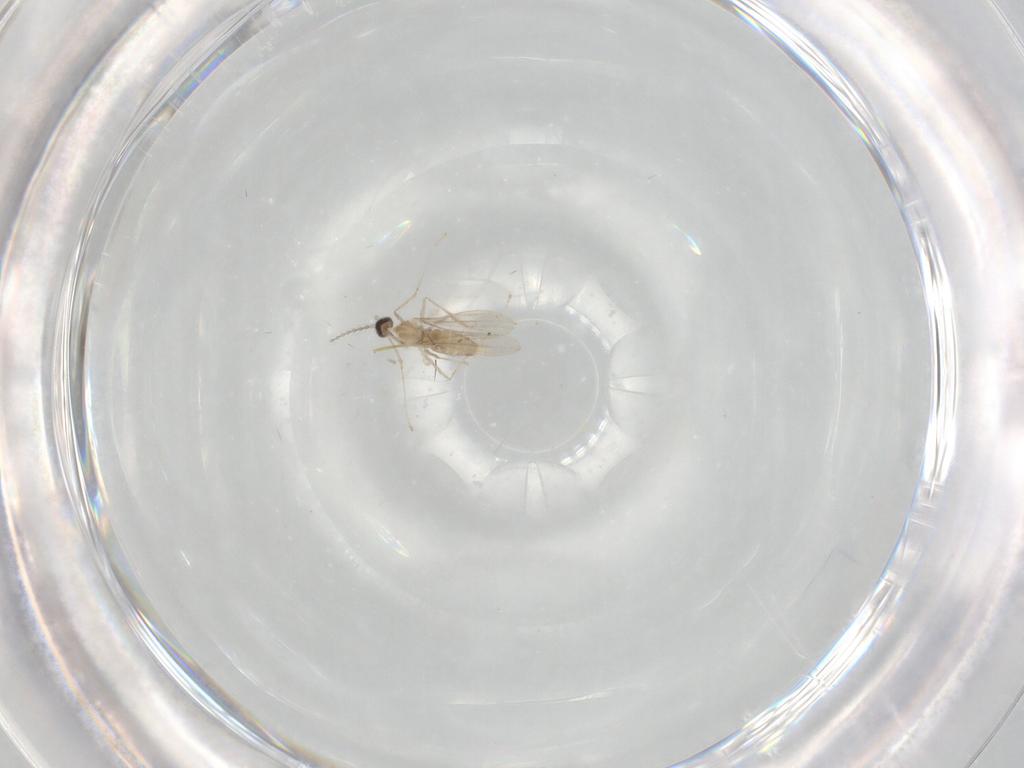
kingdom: Animalia
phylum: Arthropoda
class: Insecta
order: Diptera
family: Cecidomyiidae
